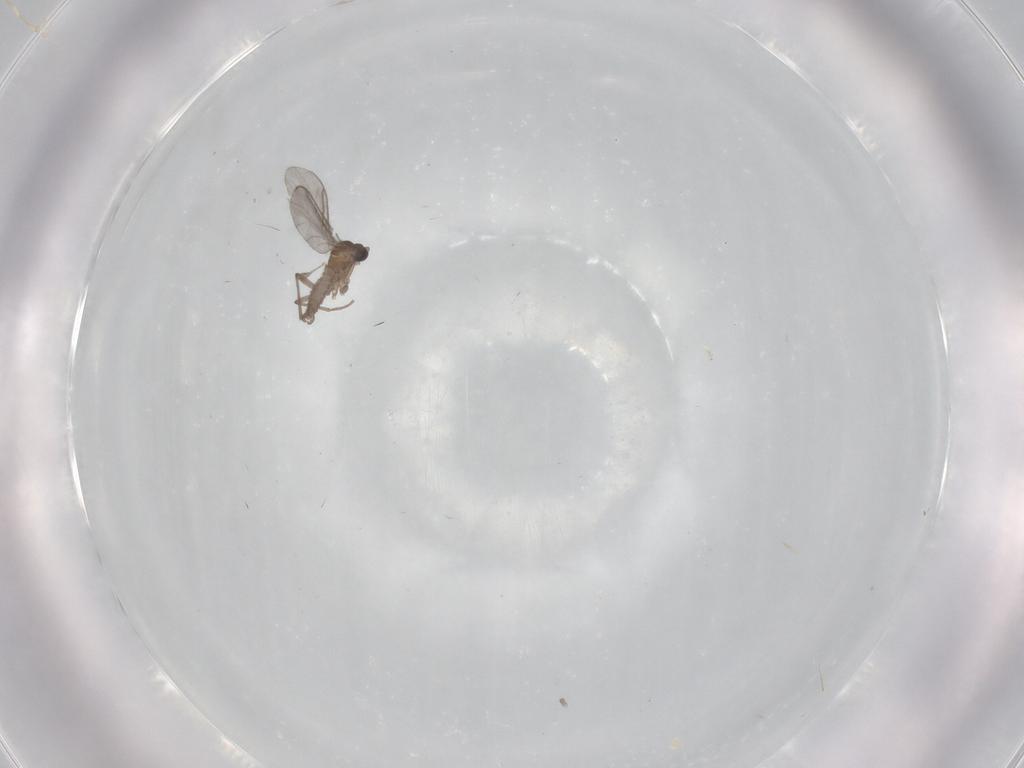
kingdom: Animalia
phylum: Arthropoda
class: Insecta
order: Diptera
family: Sciaridae
